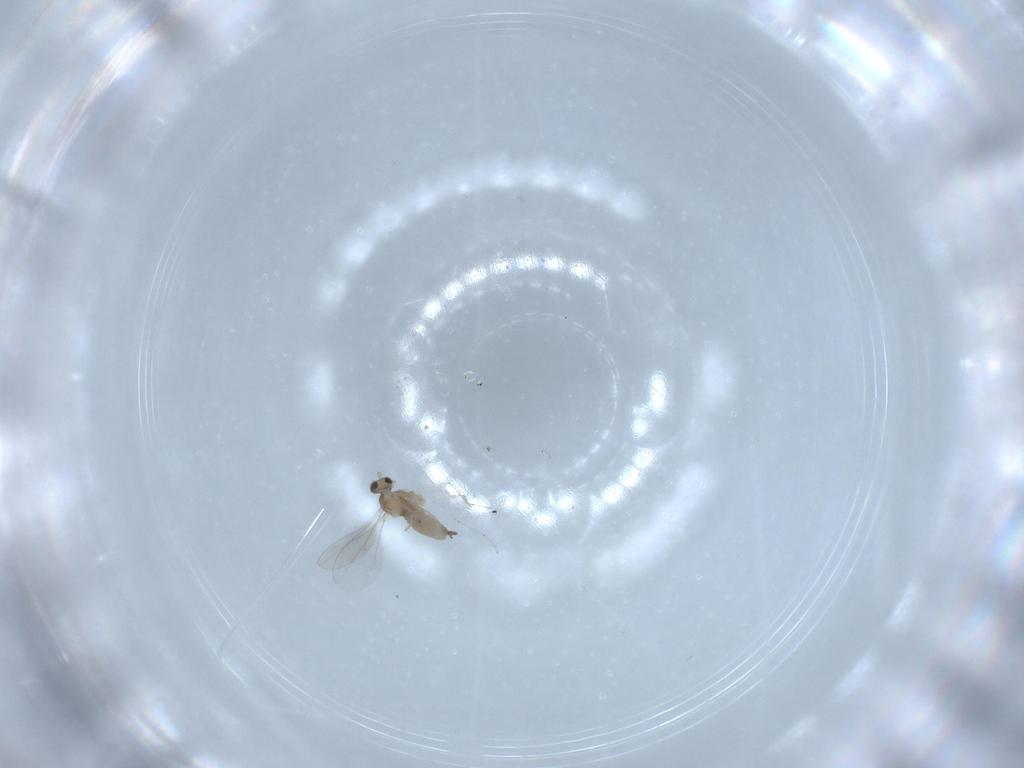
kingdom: Animalia
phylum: Arthropoda
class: Insecta
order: Diptera
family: Cecidomyiidae
